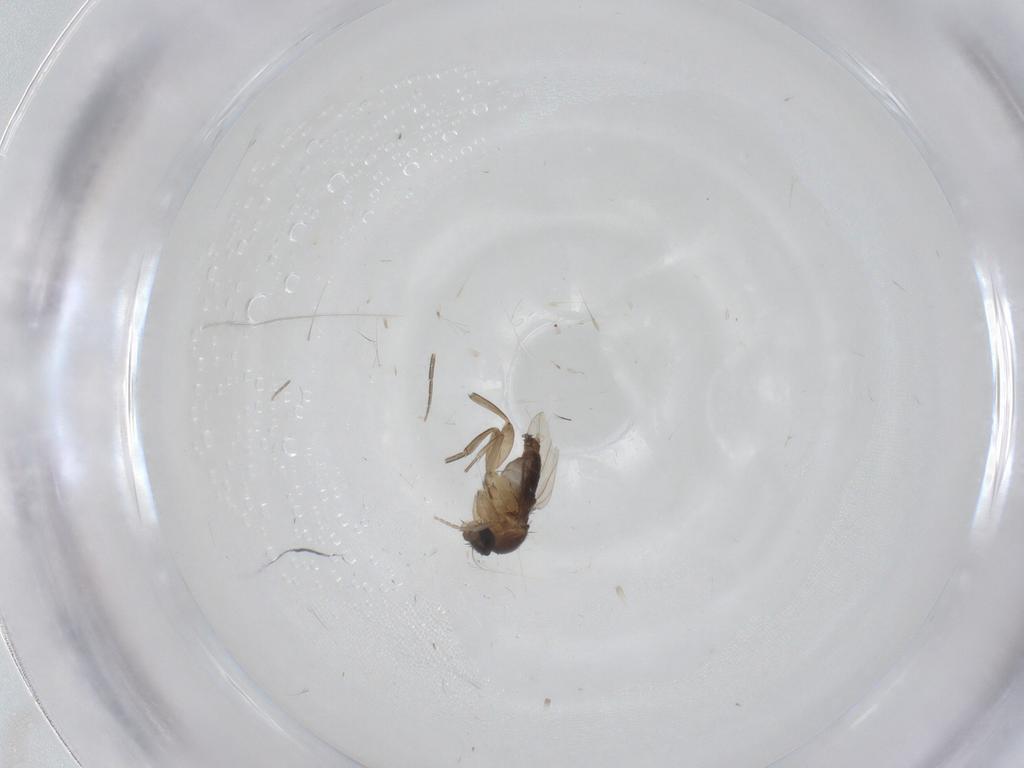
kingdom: Animalia
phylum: Arthropoda
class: Insecta
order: Diptera
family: Phoridae
